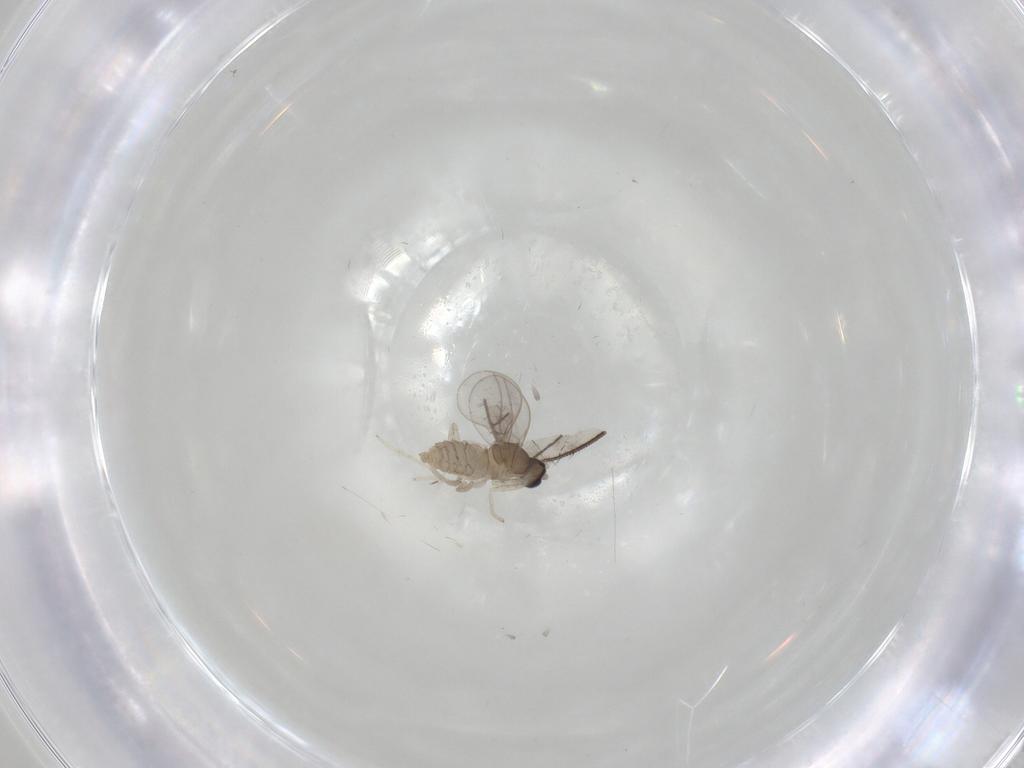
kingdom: Animalia
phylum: Arthropoda
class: Insecta
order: Diptera
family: Cecidomyiidae
